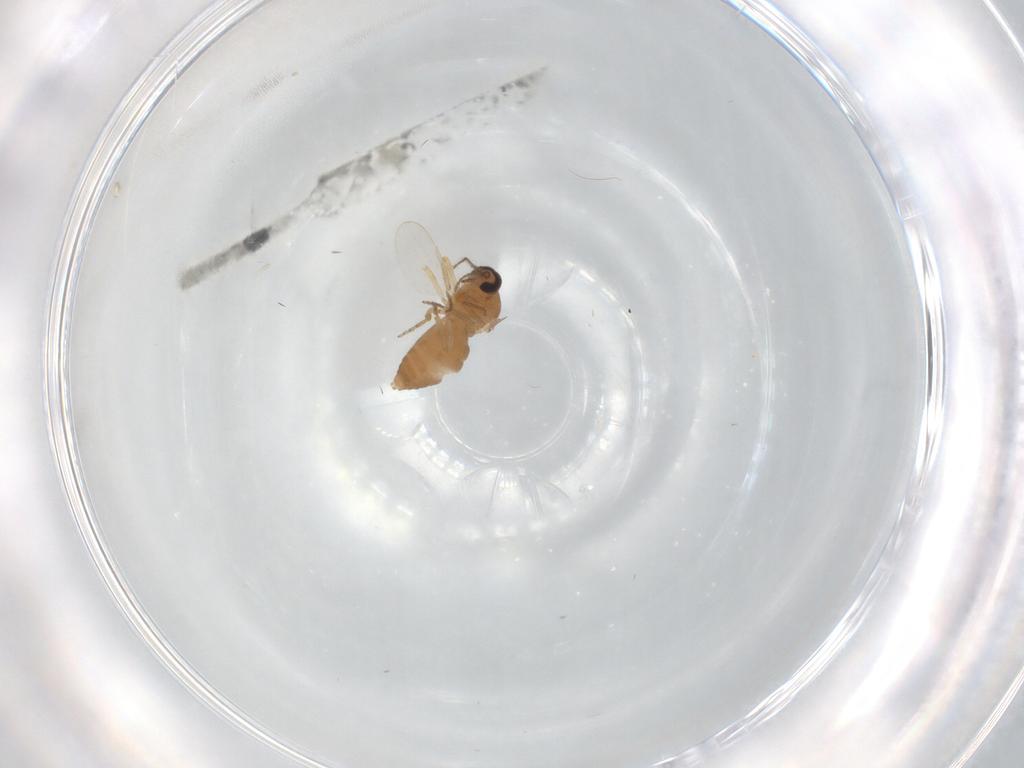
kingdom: Animalia
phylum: Arthropoda
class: Insecta
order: Diptera
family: Ceratopogonidae
